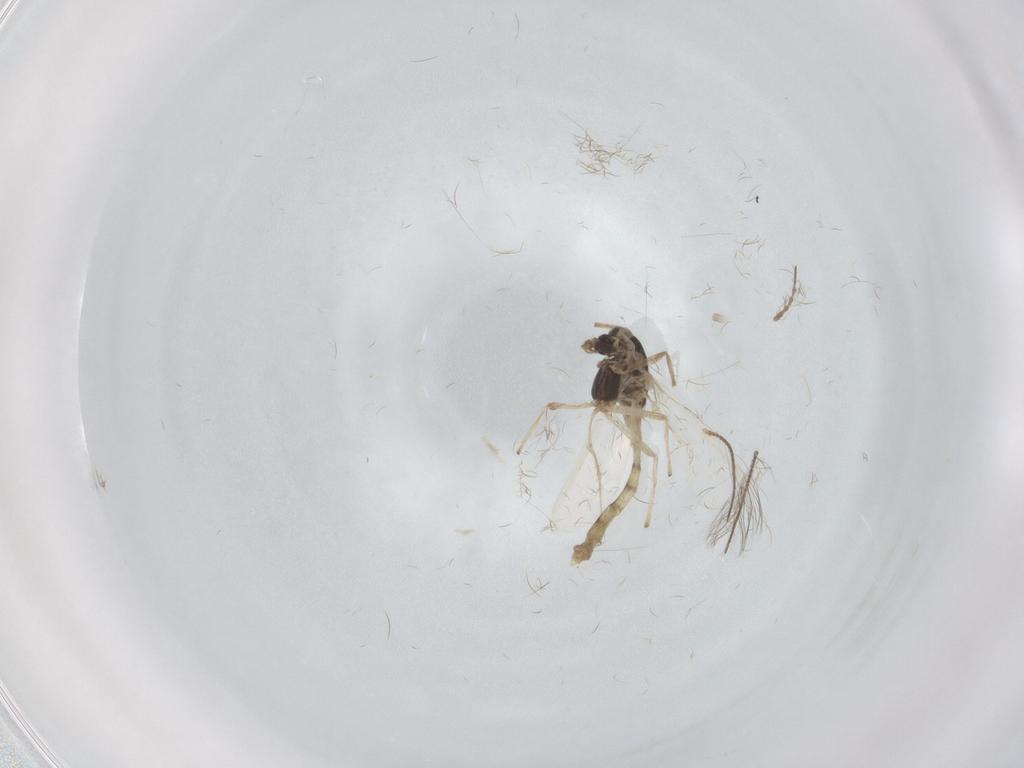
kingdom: Animalia
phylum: Arthropoda
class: Insecta
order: Diptera
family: Chironomidae
